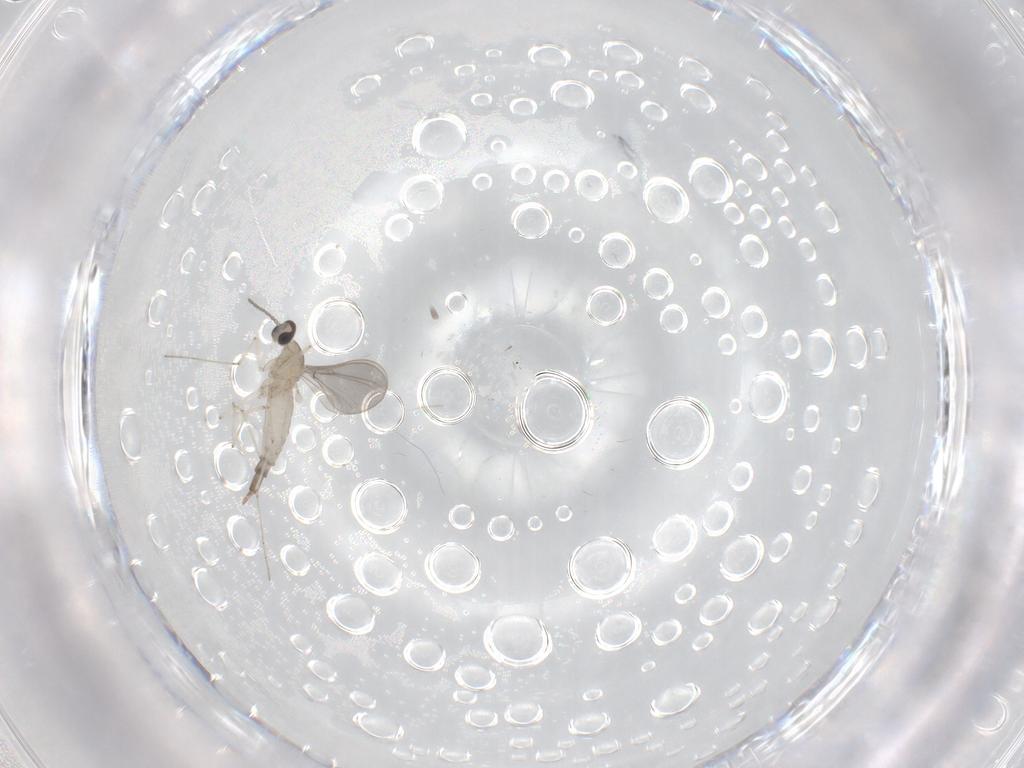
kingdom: Animalia
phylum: Arthropoda
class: Insecta
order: Diptera
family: Cecidomyiidae
